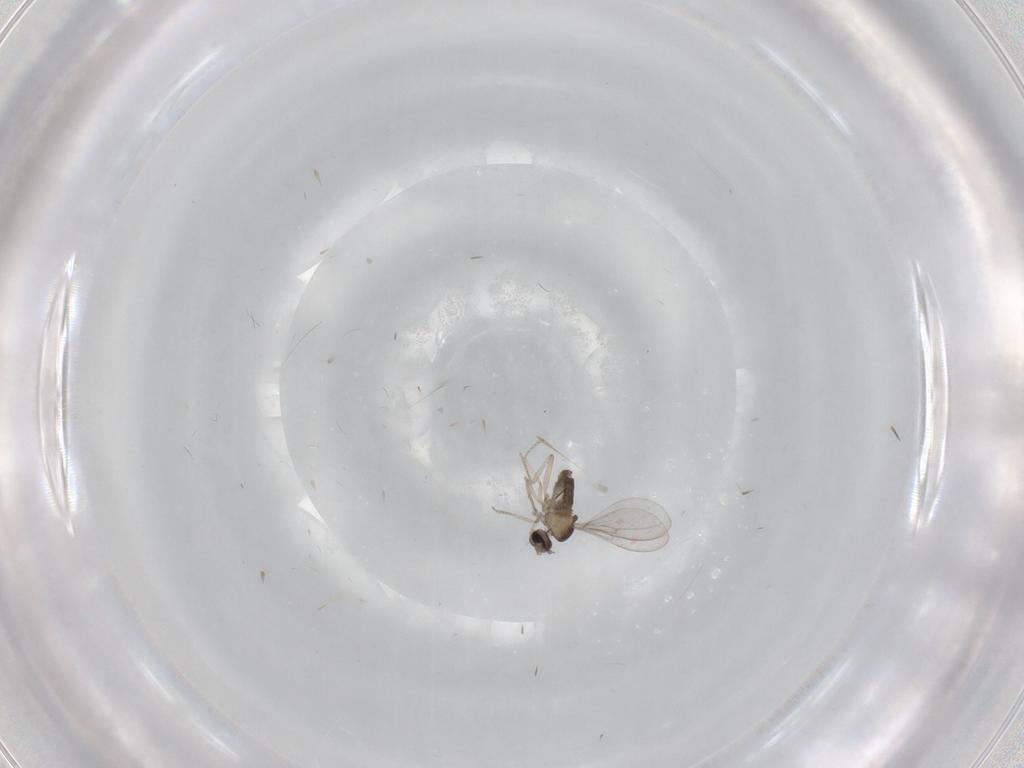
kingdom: Animalia
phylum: Arthropoda
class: Insecta
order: Diptera
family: Cecidomyiidae
